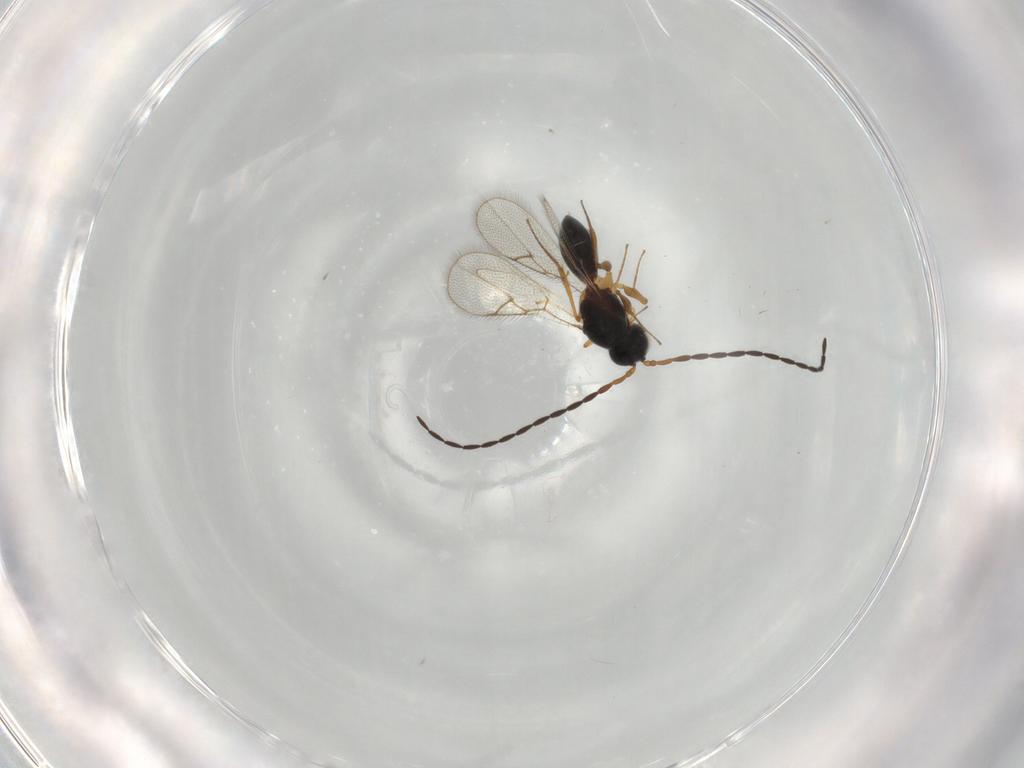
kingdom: Animalia
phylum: Arthropoda
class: Insecta
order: Hymenoptera
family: Figitidae
